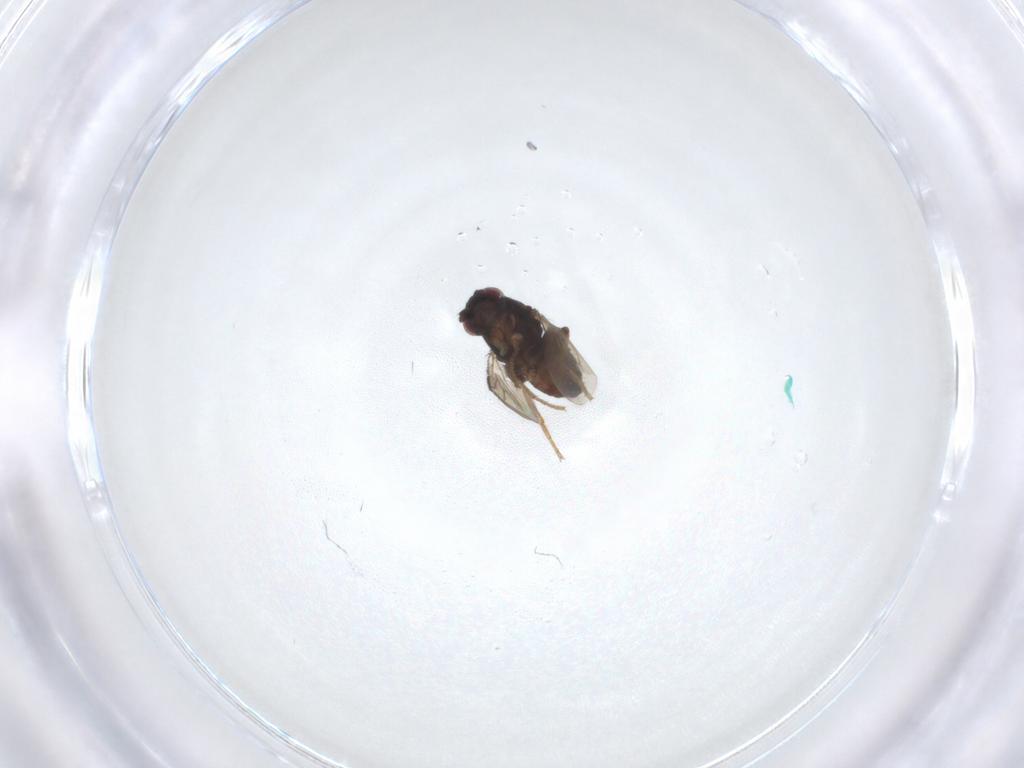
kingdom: Animalia
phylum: Arthropoda
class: Insecta
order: Diptera
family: Sphaeroceridae
